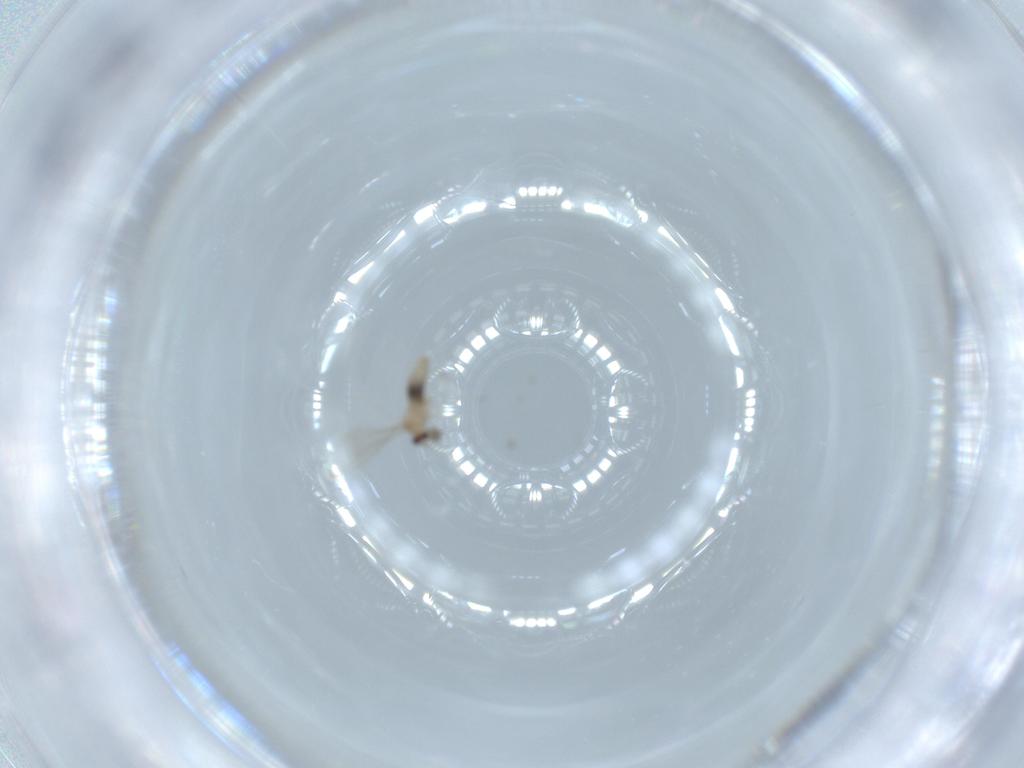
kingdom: Animalia
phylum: Arthropoda
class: Insecta
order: Diptera
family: Cecidomyiidae
